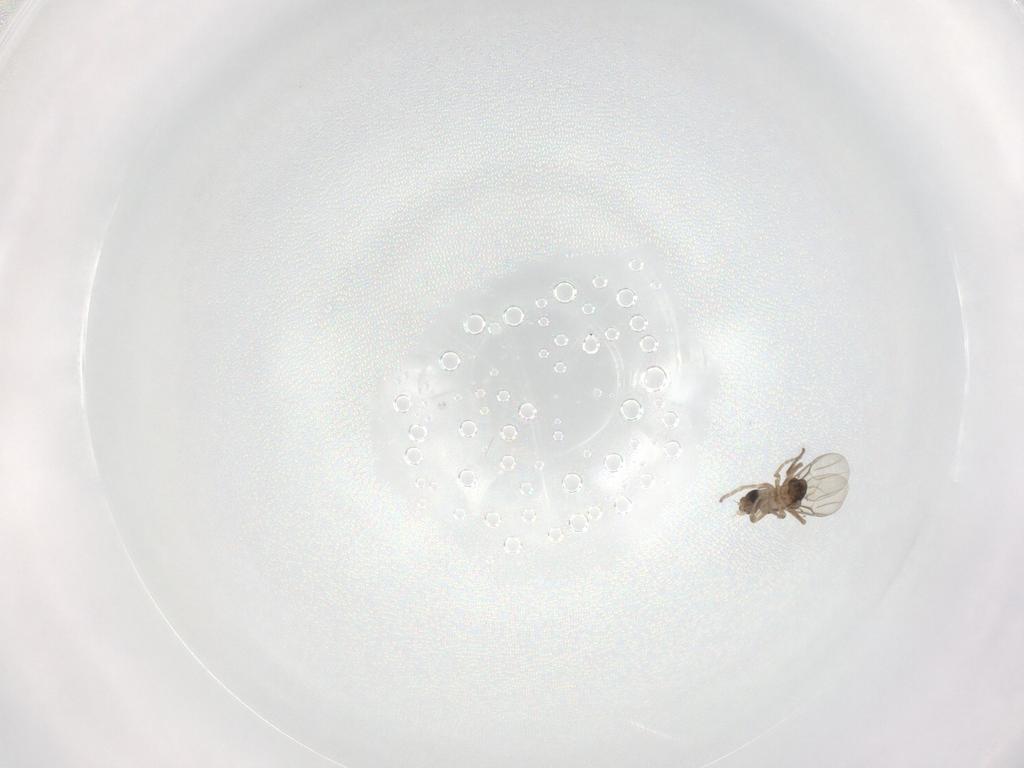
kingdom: Animalia
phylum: Arthropoda
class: Insecta
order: Diptera
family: Phoridae
